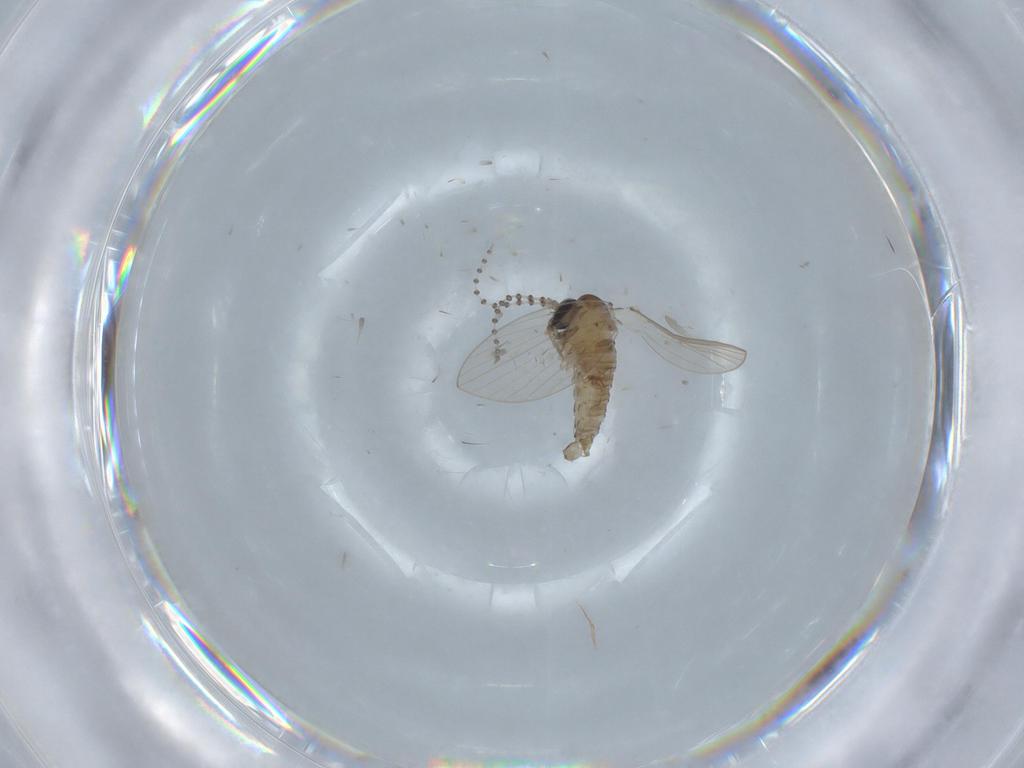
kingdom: Animalia
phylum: Arthropoda
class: Insecta
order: Diptera
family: Psychodidae
